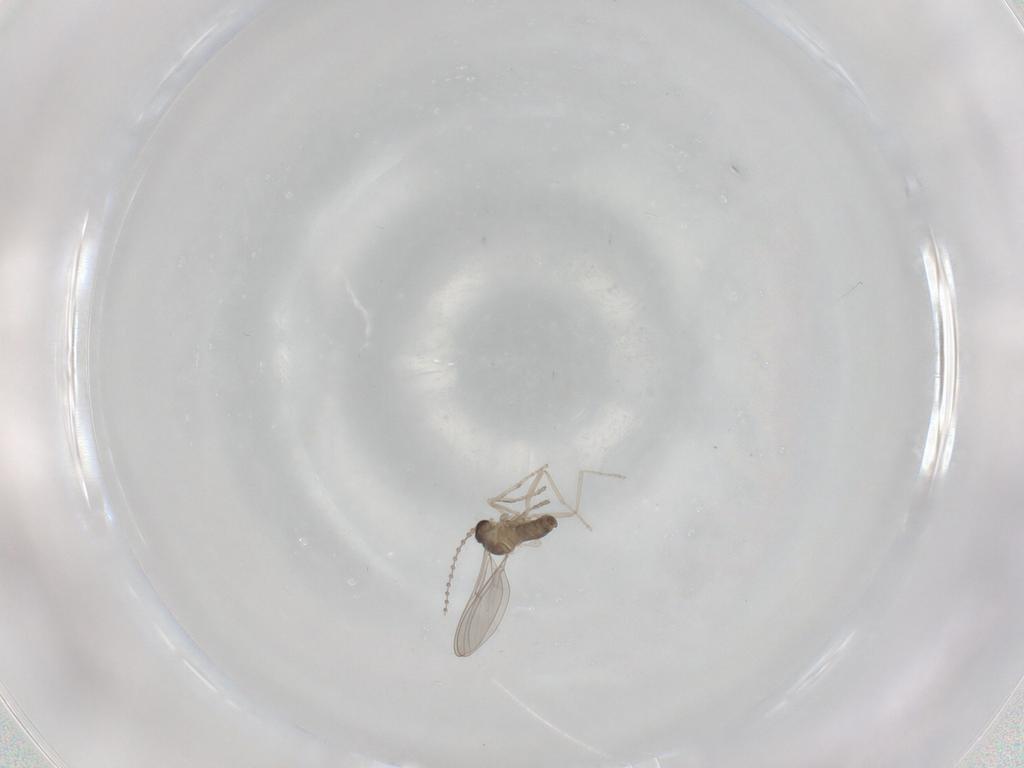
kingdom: Animalia
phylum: Arthropoda
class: Insecta
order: Diptera
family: Cecidomyiidae
